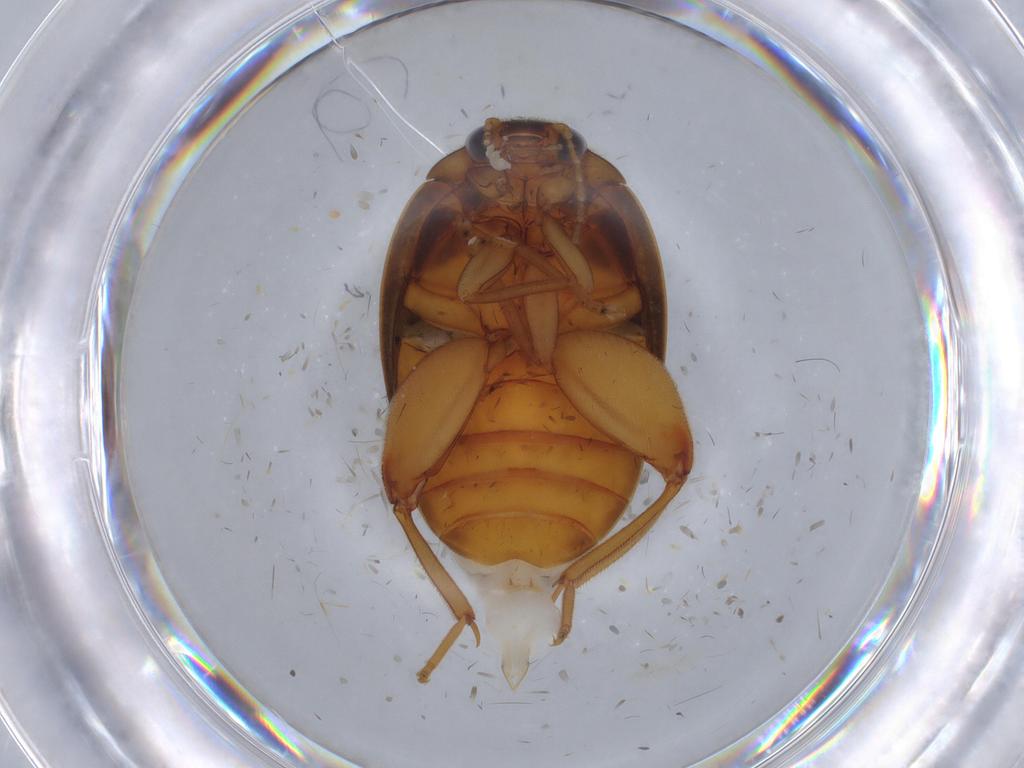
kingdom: Animalia
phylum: Arthropoda
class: Insecta
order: Coleoptera
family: Scirtidae
